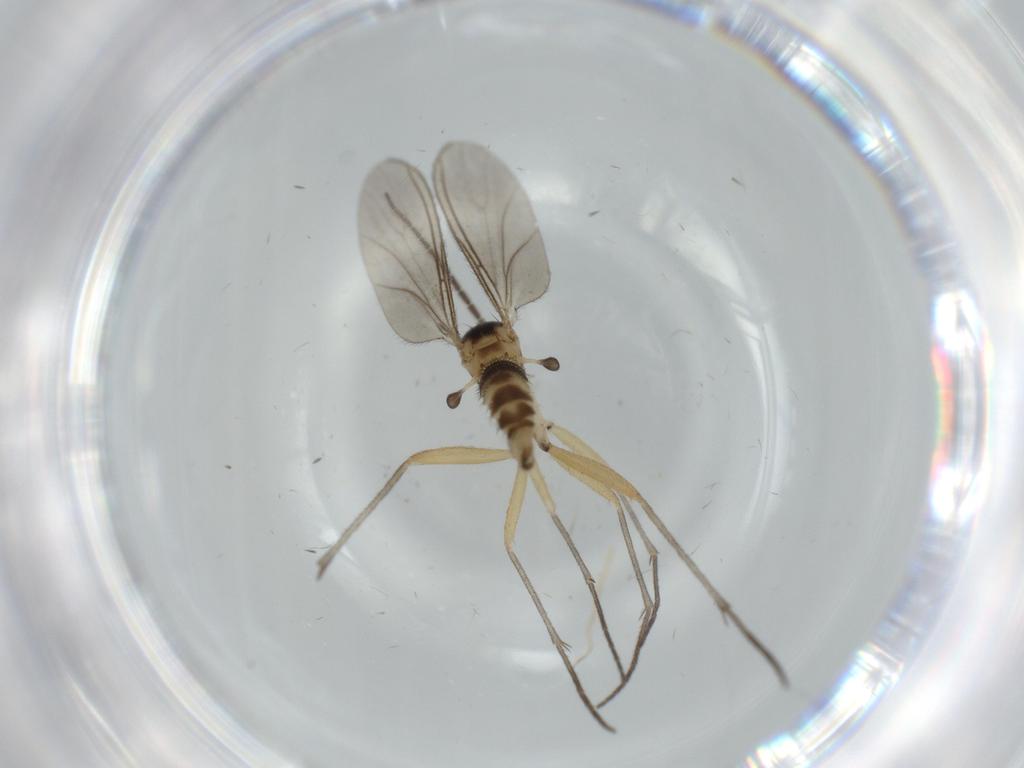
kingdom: Animalia
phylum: Arthropoda
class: Insecta
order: Diptera
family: Sciaridae
